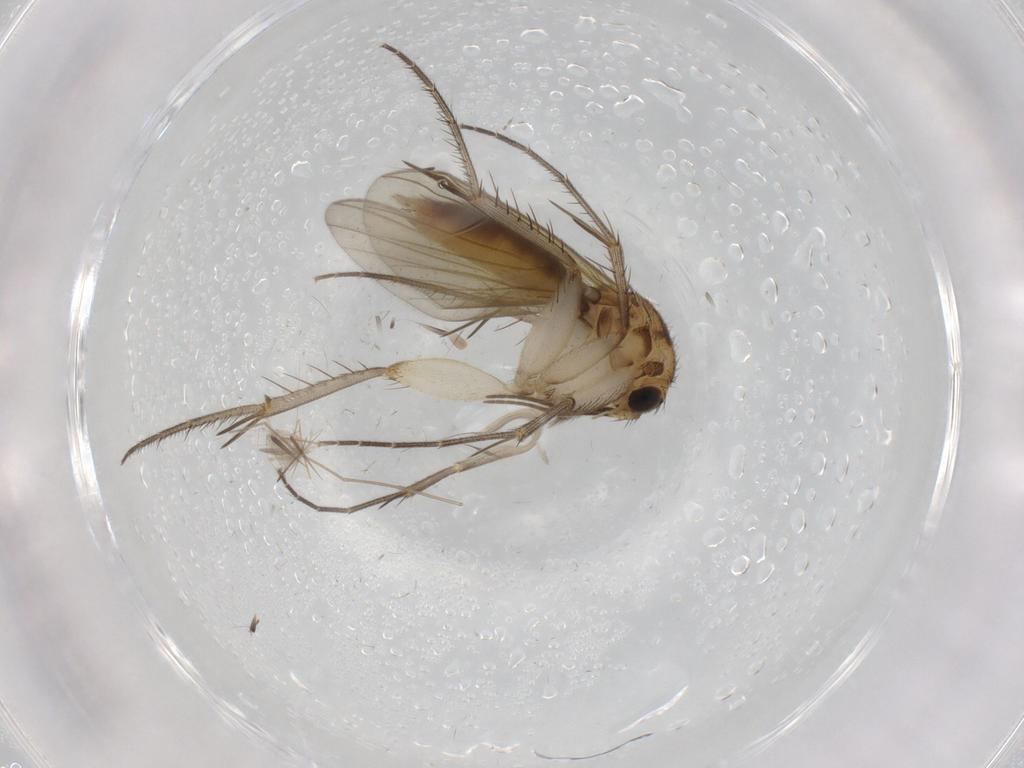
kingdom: Animalia
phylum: Arthropoda
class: Insecta
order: Diptera
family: Mycetophilidae
